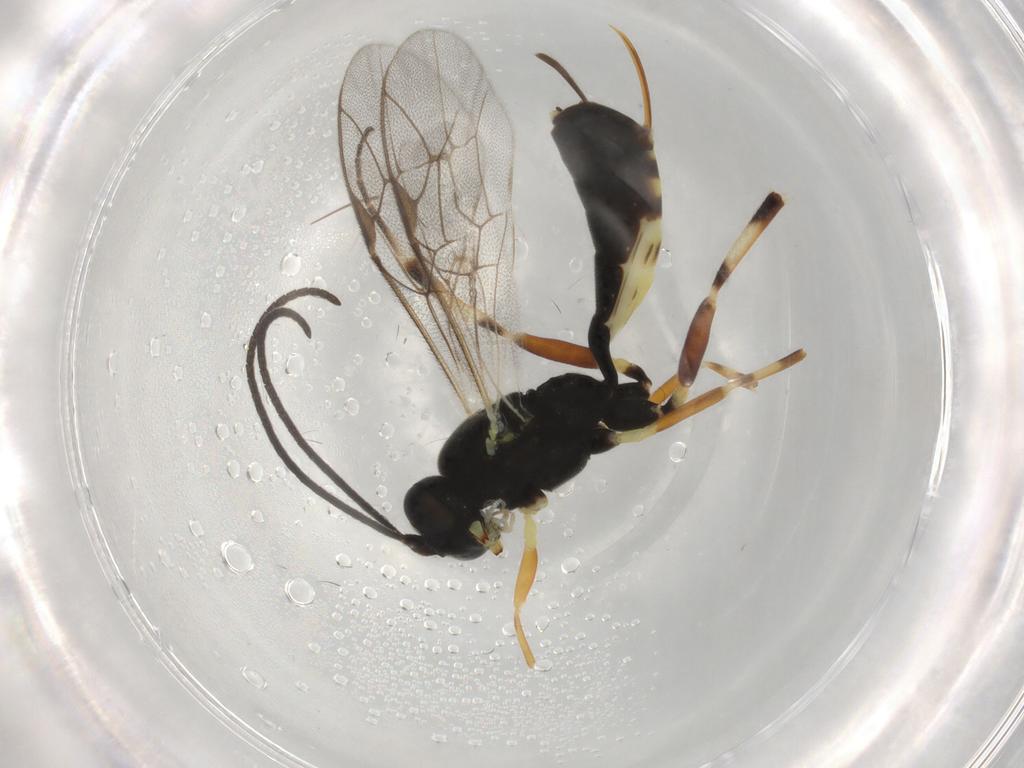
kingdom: Animalia
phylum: Arthropoda
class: Insecta
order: Hymenoptera
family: Ichneumonidae
